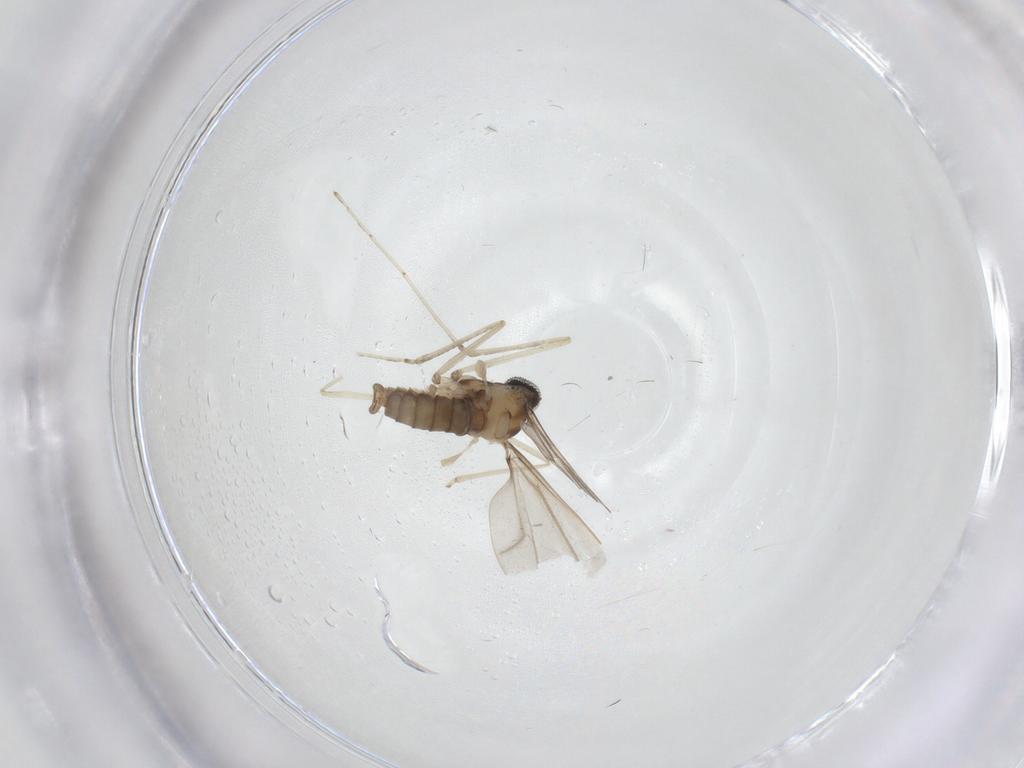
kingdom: Animalia
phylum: Arthropoda
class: Insecta
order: Diptera
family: Cecidomyiidae
